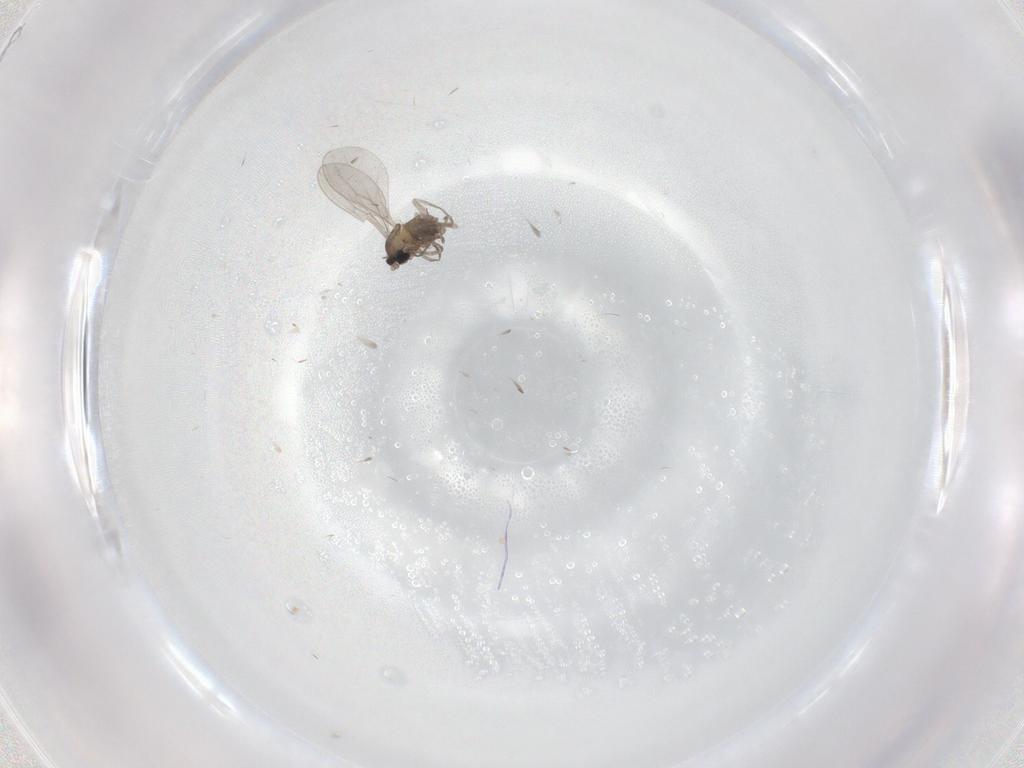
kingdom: Animalia
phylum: Arthropoda
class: Insecta
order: Diptera
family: Cecidomyiidae
